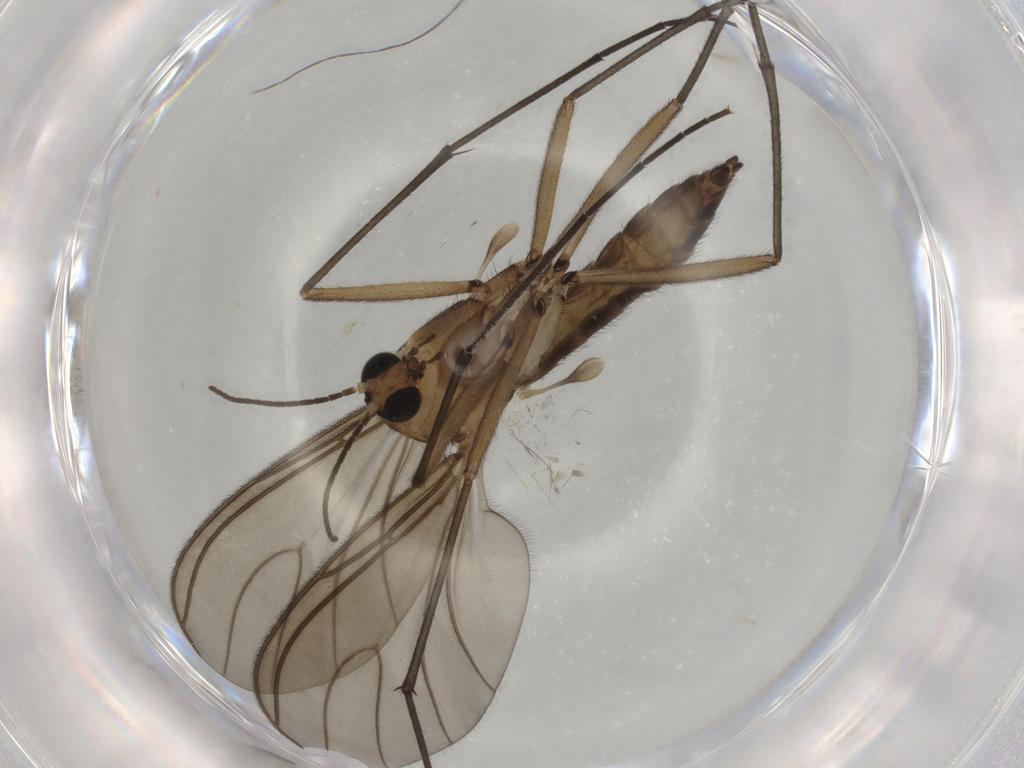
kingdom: Animalia
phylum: Arthropoda
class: Insecta
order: Diptera
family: Sciaridae
